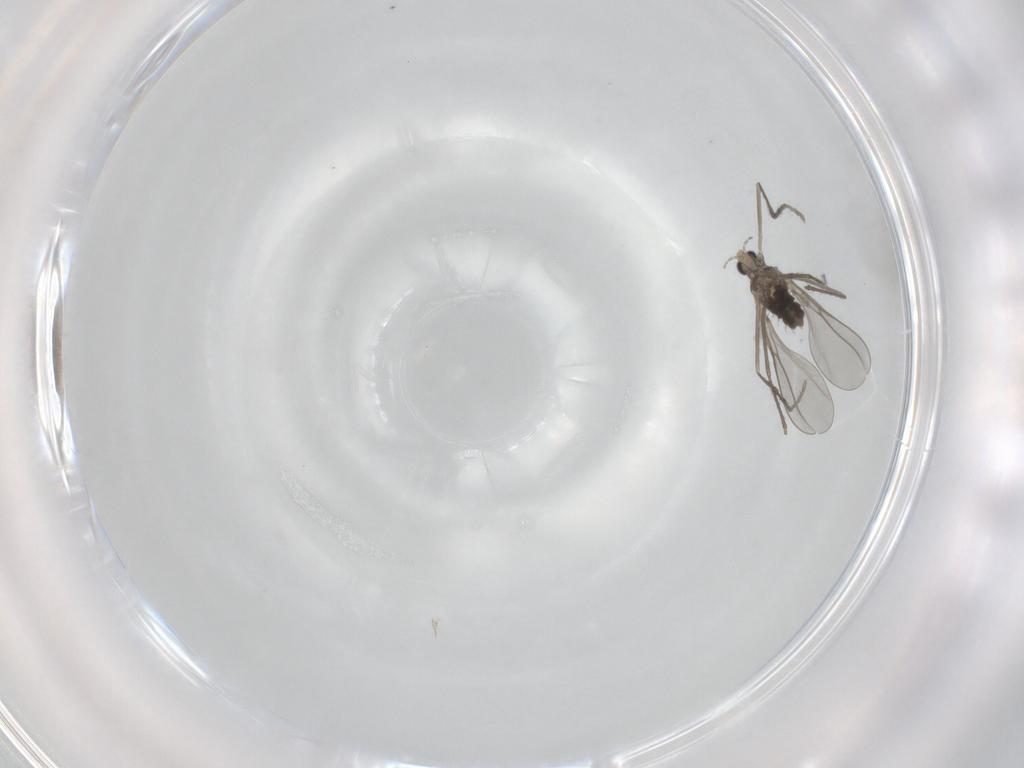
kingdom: Animalia
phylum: Arthropoda
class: Insecta
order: Diptera
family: Cecidomyiidae
